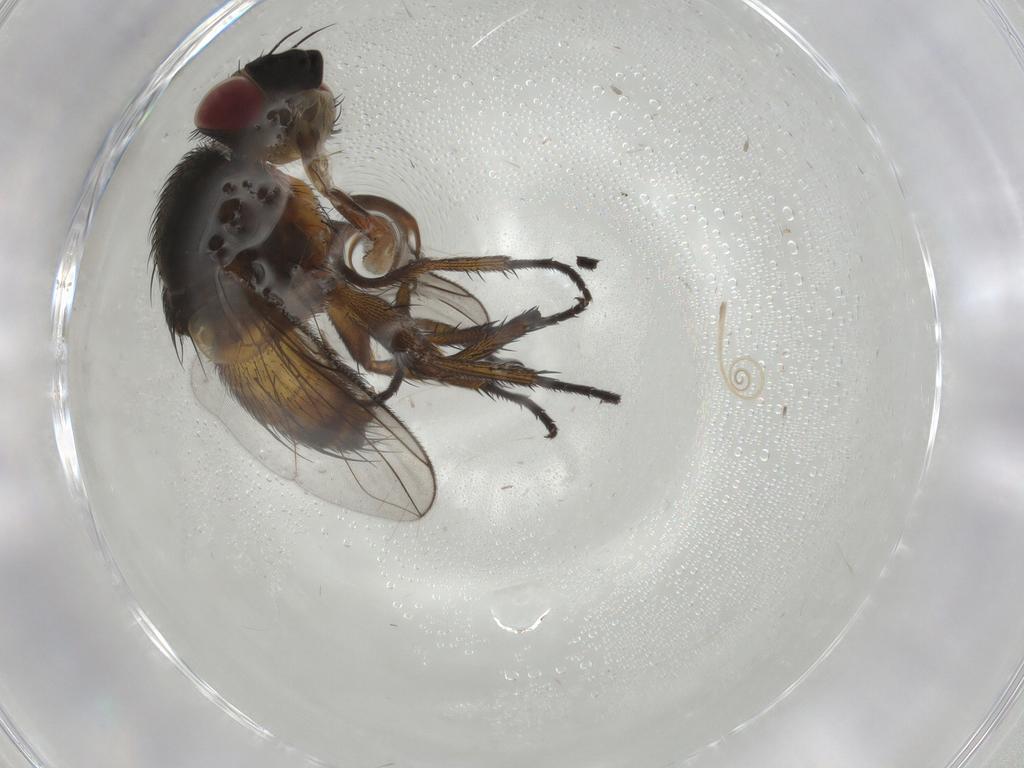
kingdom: Animalia
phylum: Arthropoda
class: Insecta
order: Diptera
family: Tachinidae
